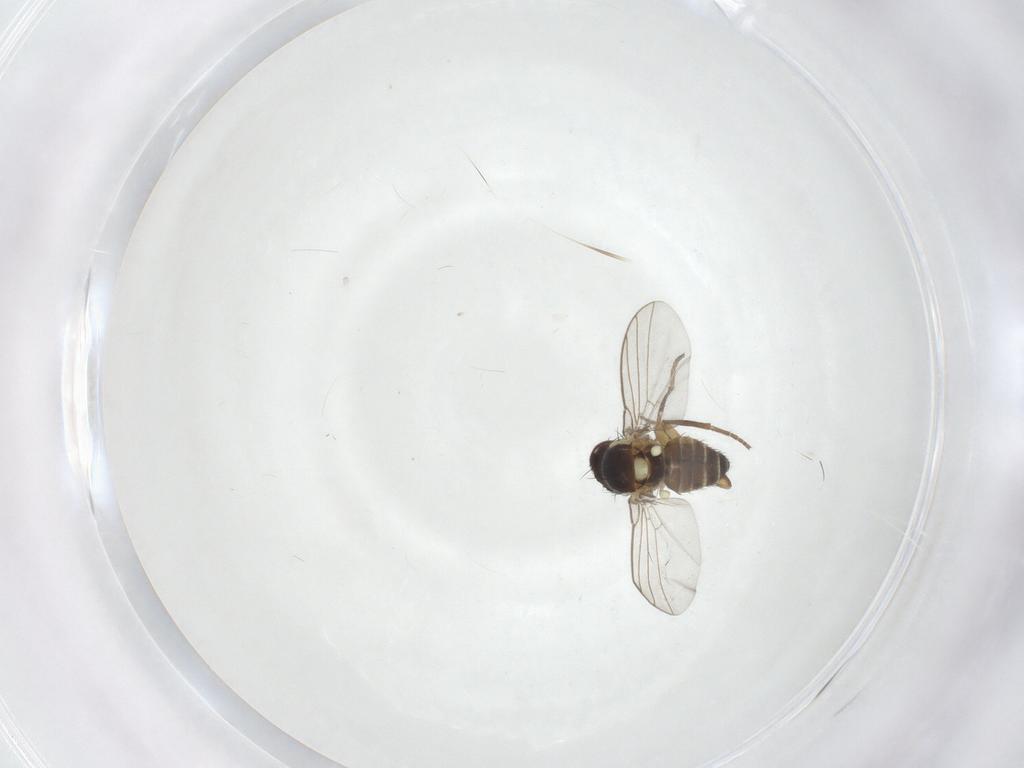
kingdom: Animalia
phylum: Arthropoda
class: Insecta
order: Diptera
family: Agromyzidae
